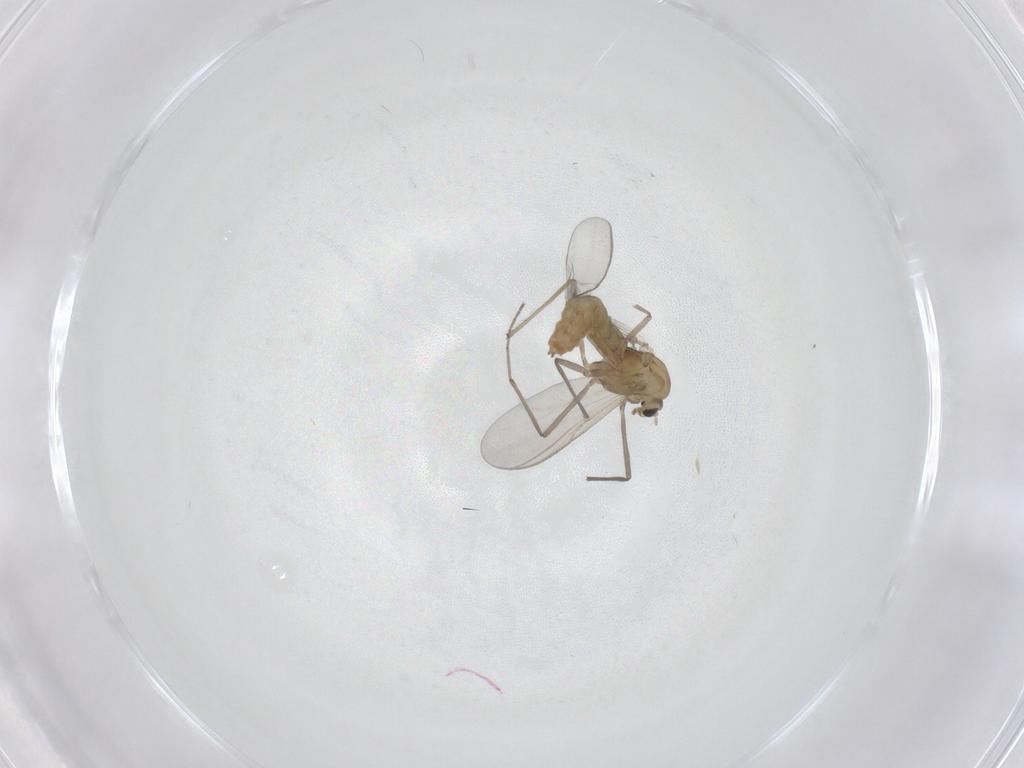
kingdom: Animalia
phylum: Arthropoda
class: Insecta
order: Diptera
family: Chironomidae
